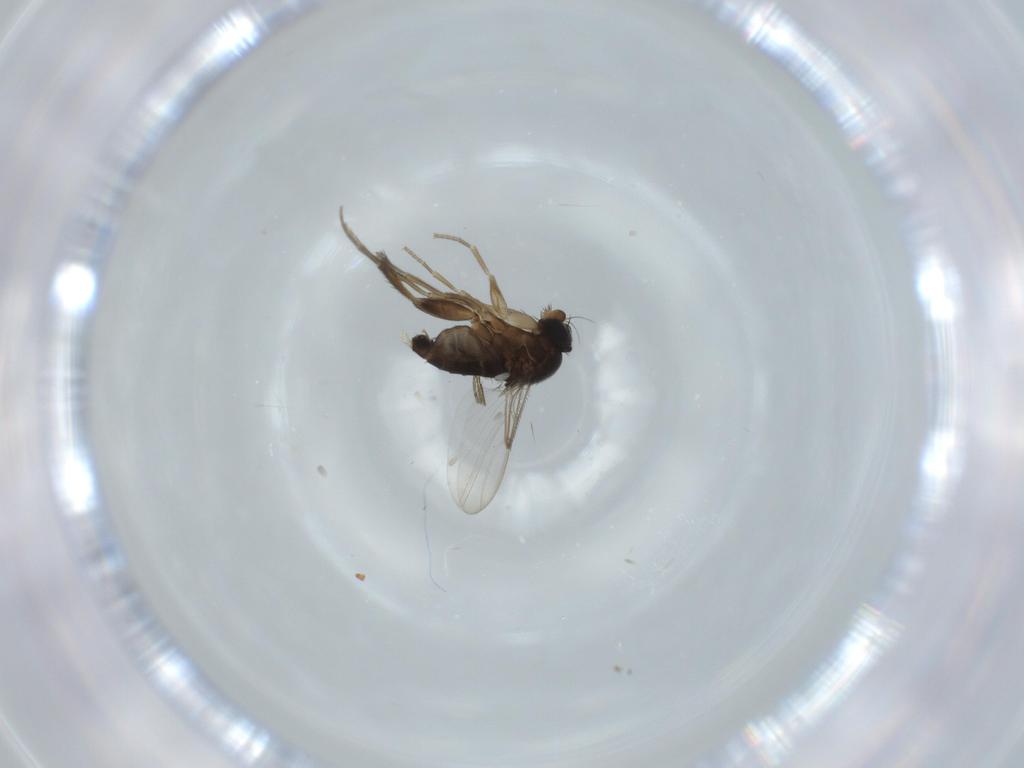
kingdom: Animalia
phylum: Arthropoda
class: Insecta
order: Diptera
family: Phoridae
